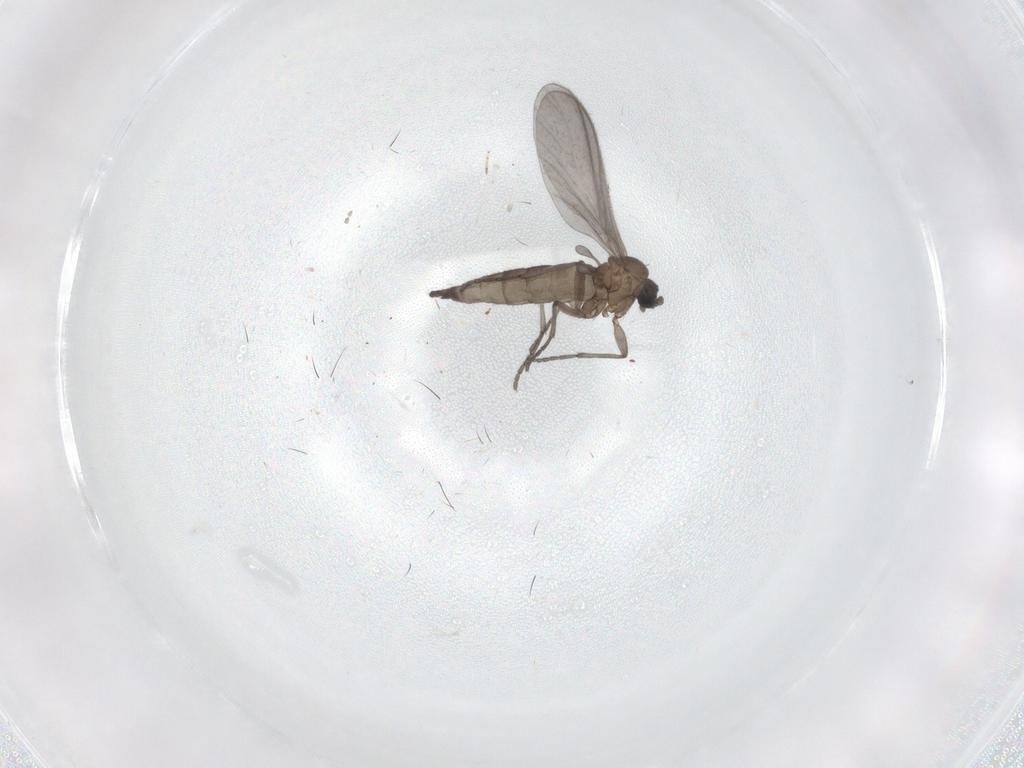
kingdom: Animalia
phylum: Arthropoda
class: Insecta
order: Diptera
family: Sciaridae
